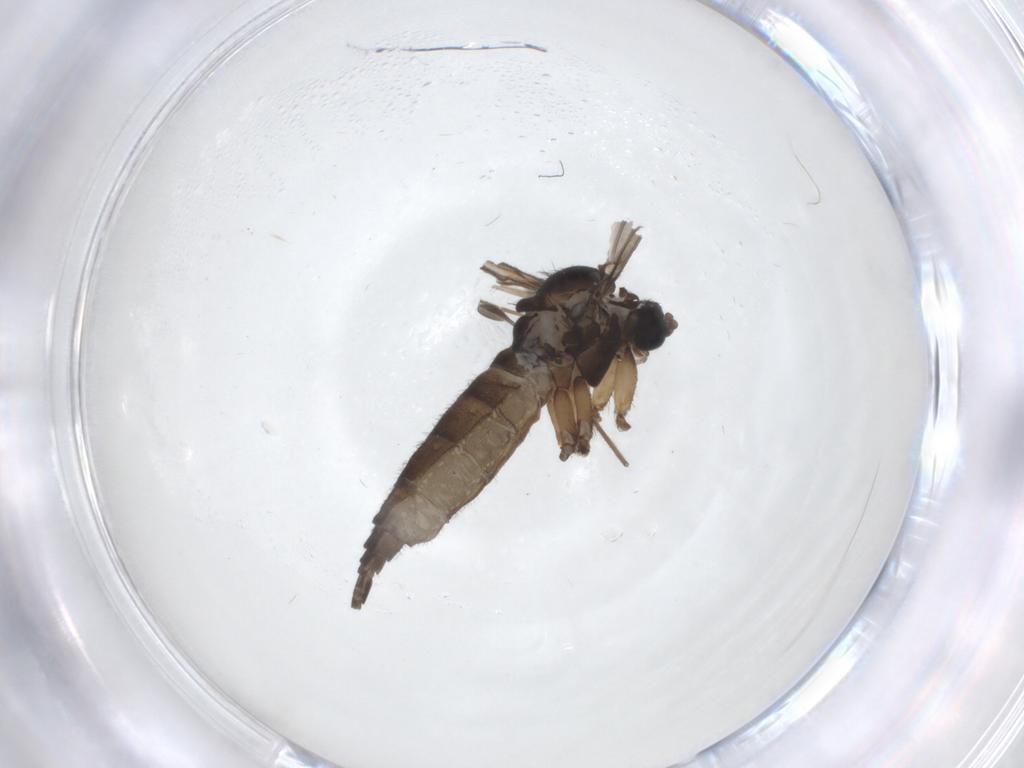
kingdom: Animalia
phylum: Arthropoda
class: Insecta
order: Diptera
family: Sciaridae
